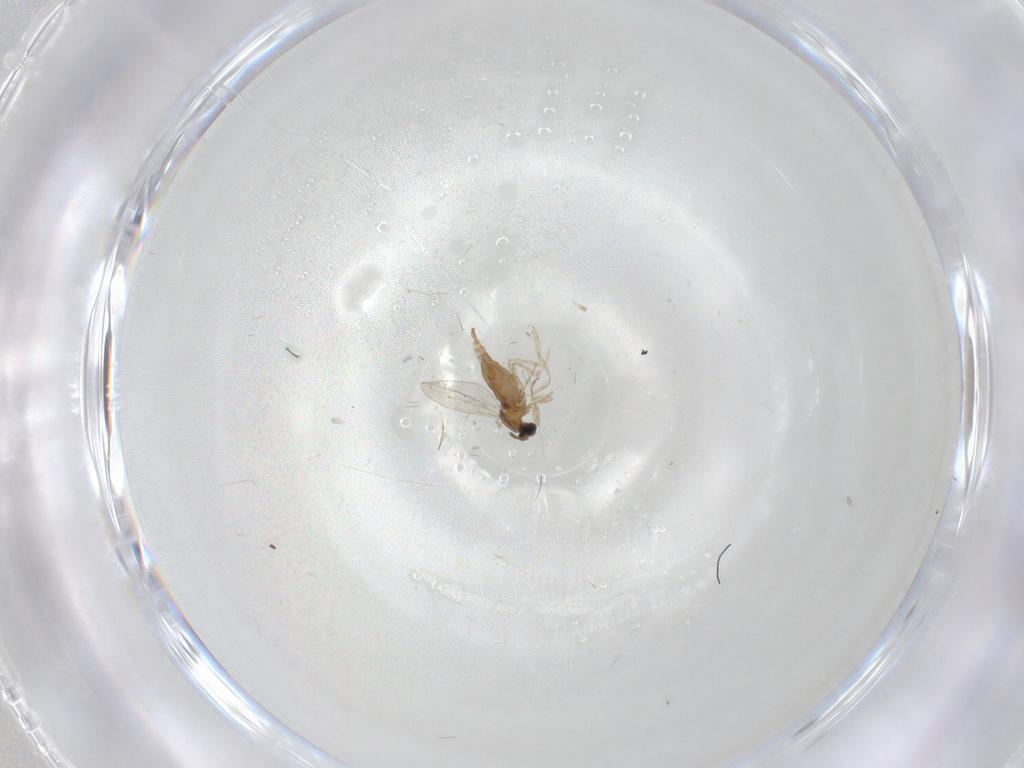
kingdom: Animalia
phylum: Arthropoda
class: Insecta
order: Diptera
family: Cecidomyiidae
